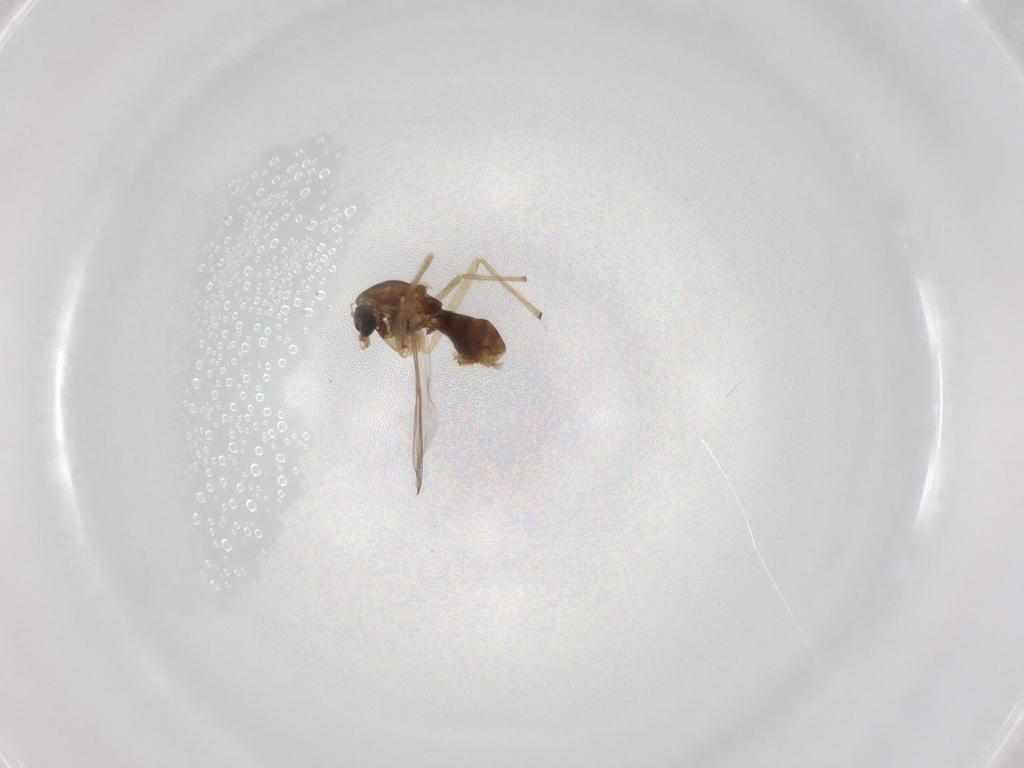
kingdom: Animalia
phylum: Arthropoda
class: Insecta
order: Diptera
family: Chironomidae
